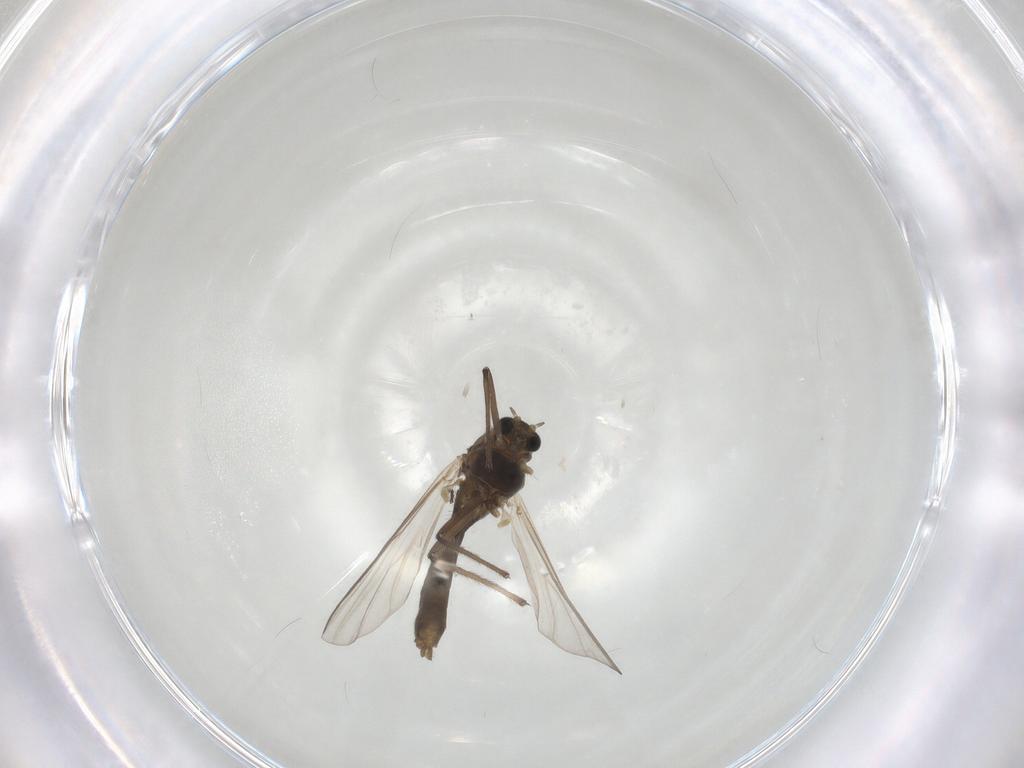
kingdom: Animalia
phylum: Arthropoda
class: Insecta
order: Diptera
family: Chironomidae
